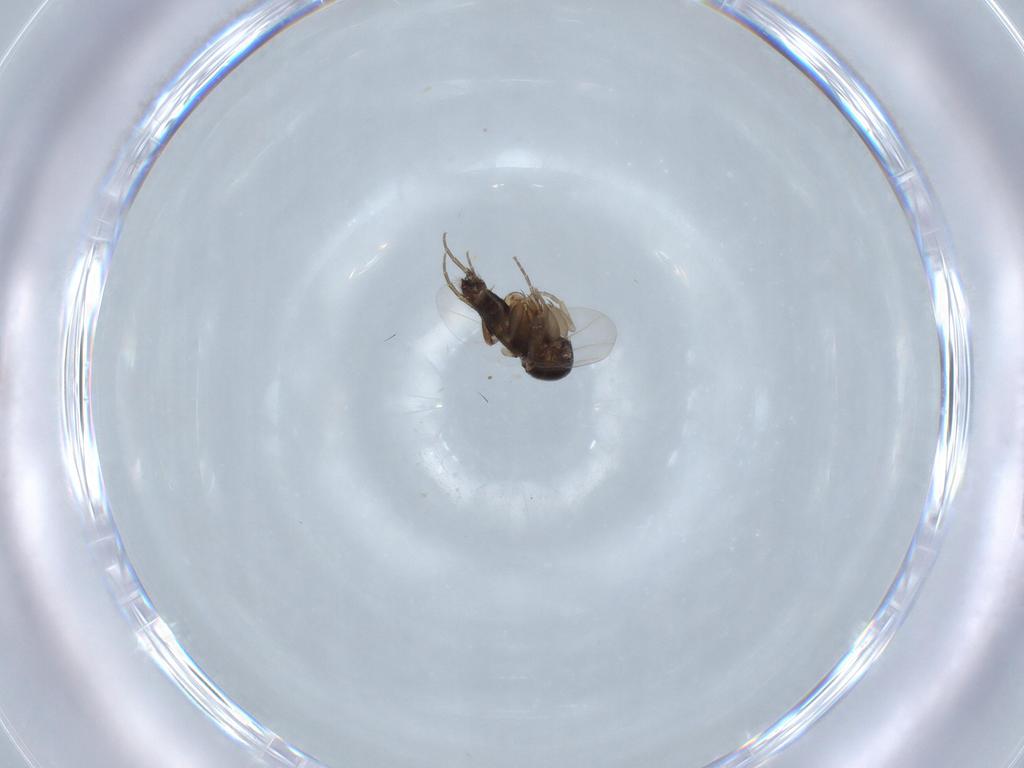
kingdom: Animalia
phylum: Arthropoda
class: Insecta
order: Diptera
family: Phoridae
